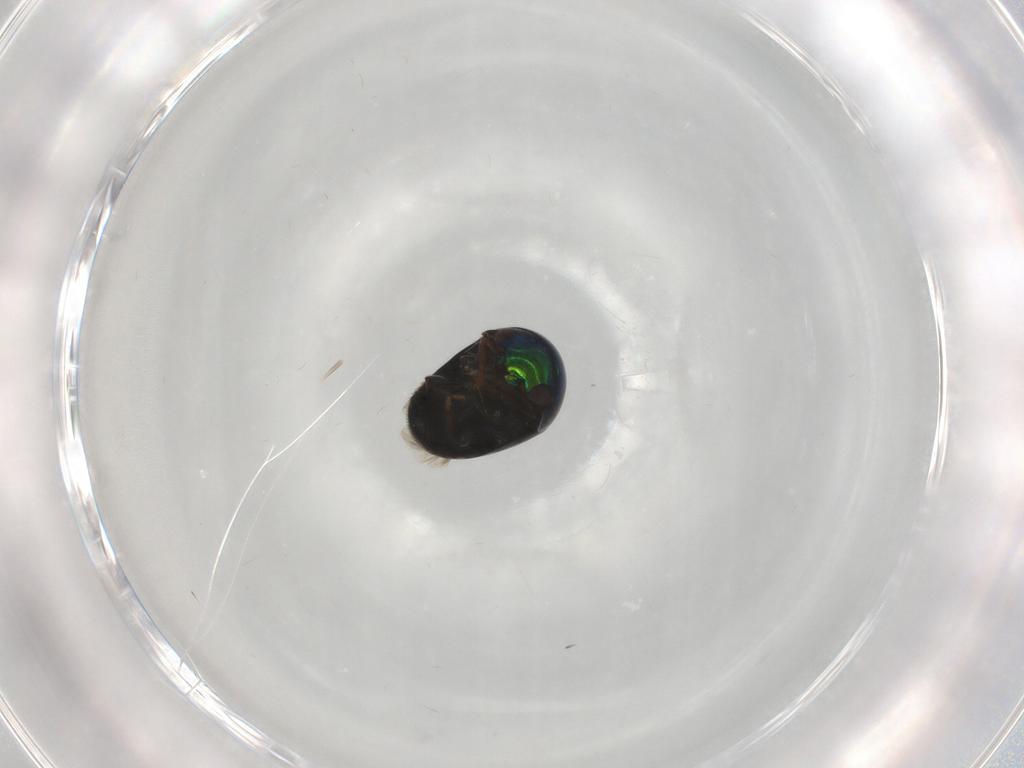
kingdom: Animalia
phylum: Arthropoda
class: Insecta
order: Coleoptera
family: Cybocephalidae
